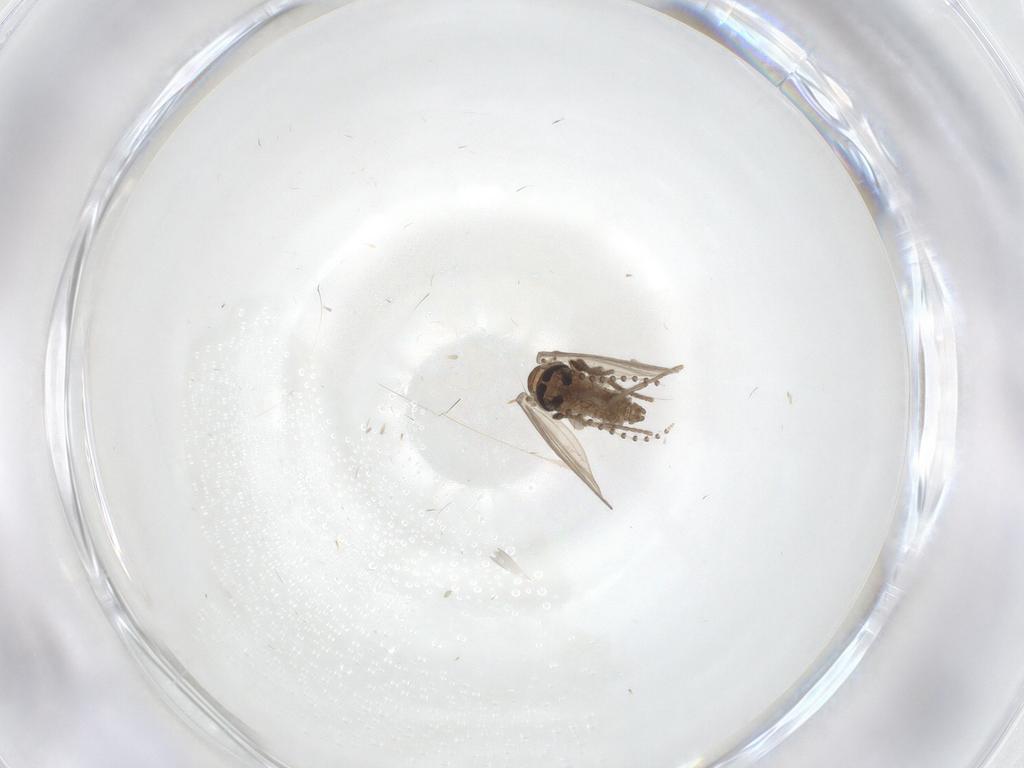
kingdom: Animalia
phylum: Arthropoda
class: Insecta
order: Diptera
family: Psychodidae
